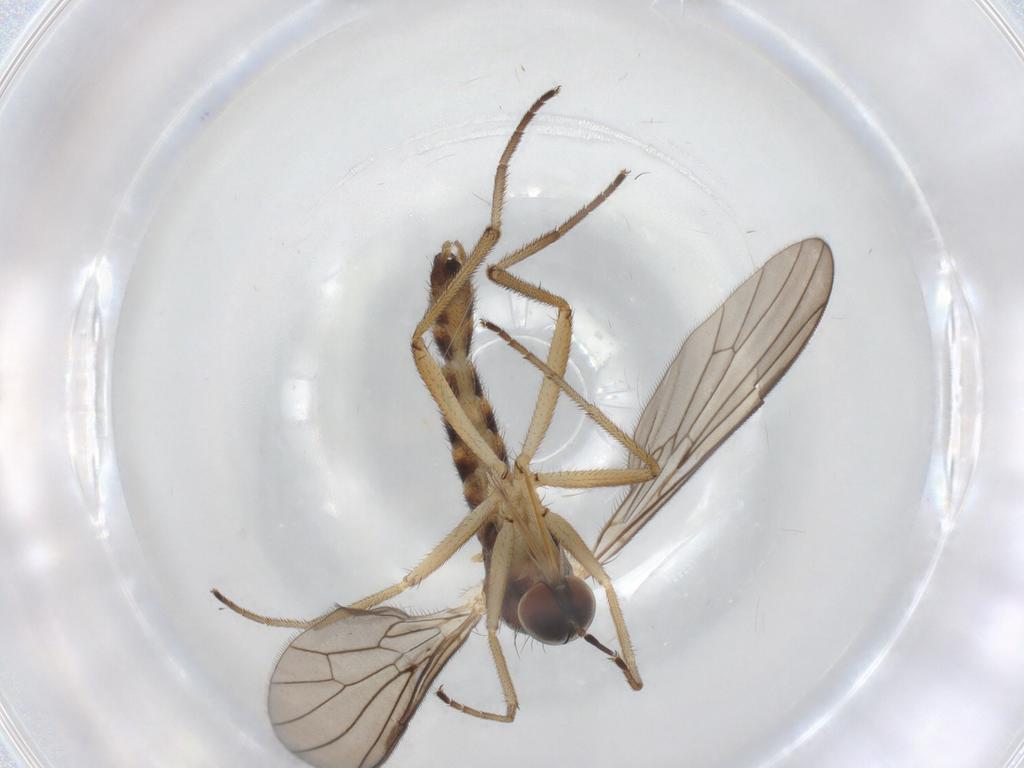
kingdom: Animalia
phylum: Arthropoda
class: Insecta
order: Diptera
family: Empididae
